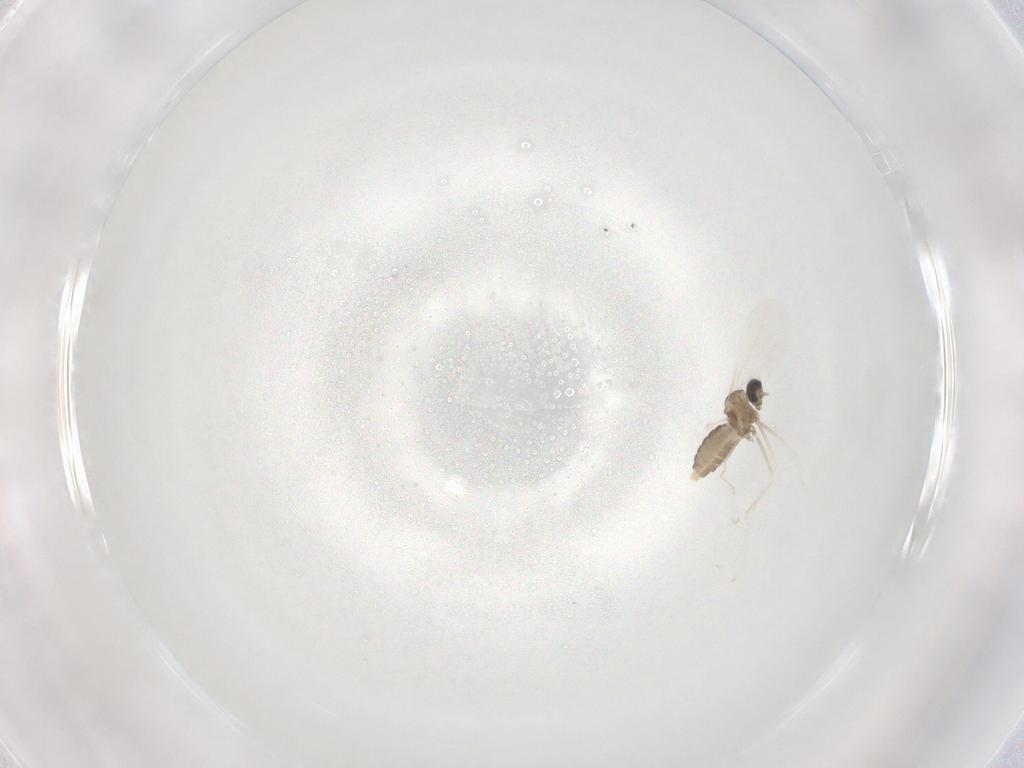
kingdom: Animalia
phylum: Arthropoda
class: Insecta
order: Diptera
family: Cecidomyiidae
